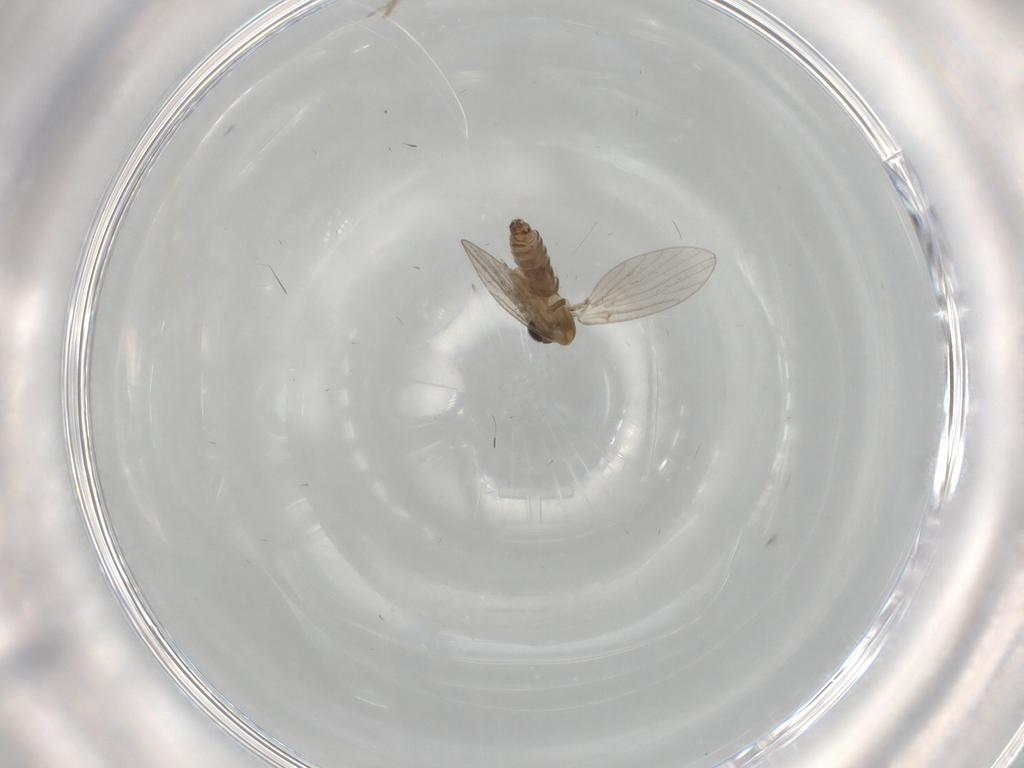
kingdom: Animalia
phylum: Arthropoda
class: Insecta
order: Diptera
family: Psychodidae
